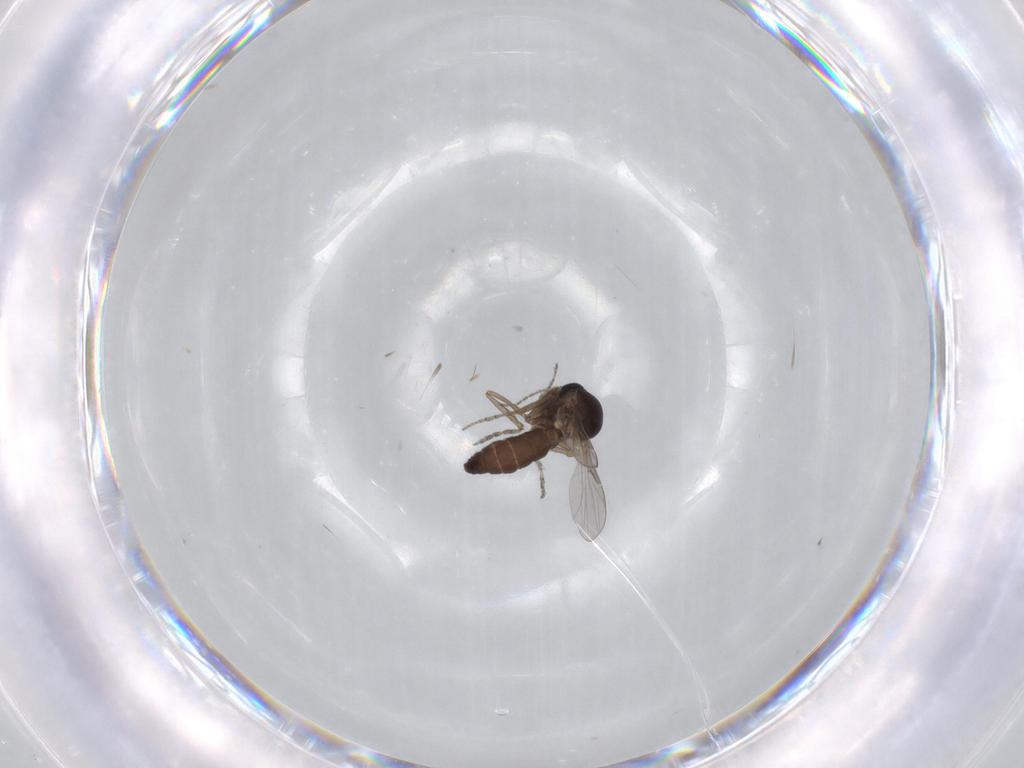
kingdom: Animalia
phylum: Arthropoda
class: Insecta
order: Diptera
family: Ceratopogonidae
